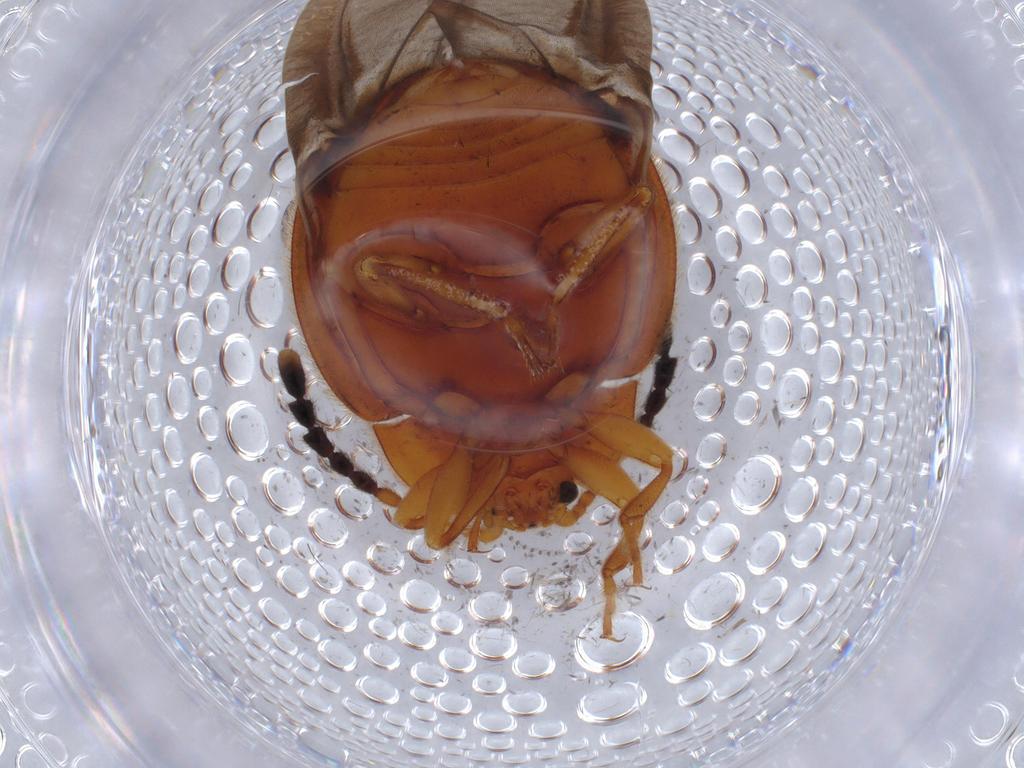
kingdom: Animalia
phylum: Arthropoda
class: Insecta
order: Coleoptera
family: Endomychidae
